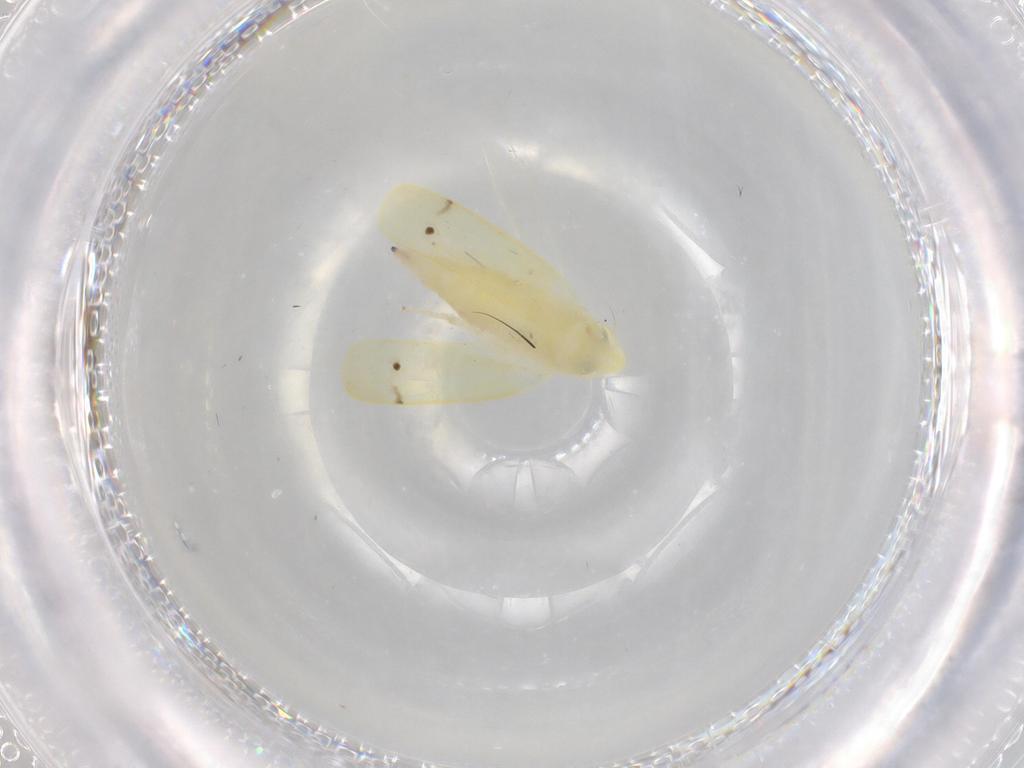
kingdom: Animalia
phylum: Arthropoda
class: Insecta
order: Hemiptera
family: Cicadellidae
